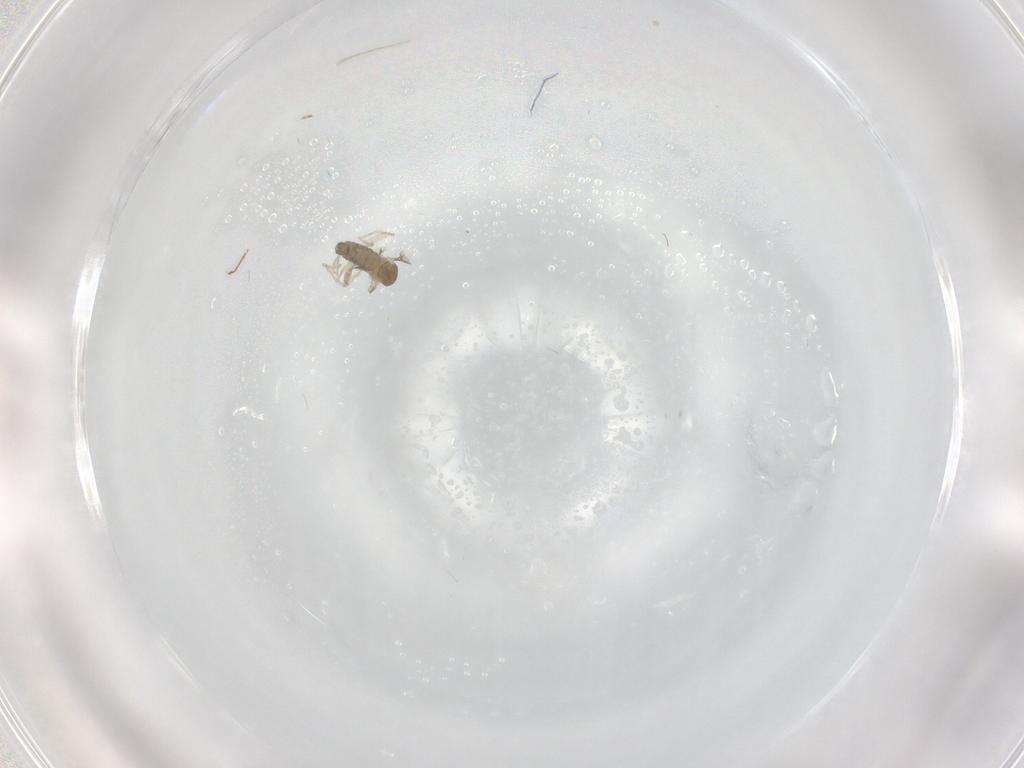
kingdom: Animalia
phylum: Arthropoda
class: Insecta
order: Diptera
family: Cecidomyiidae
